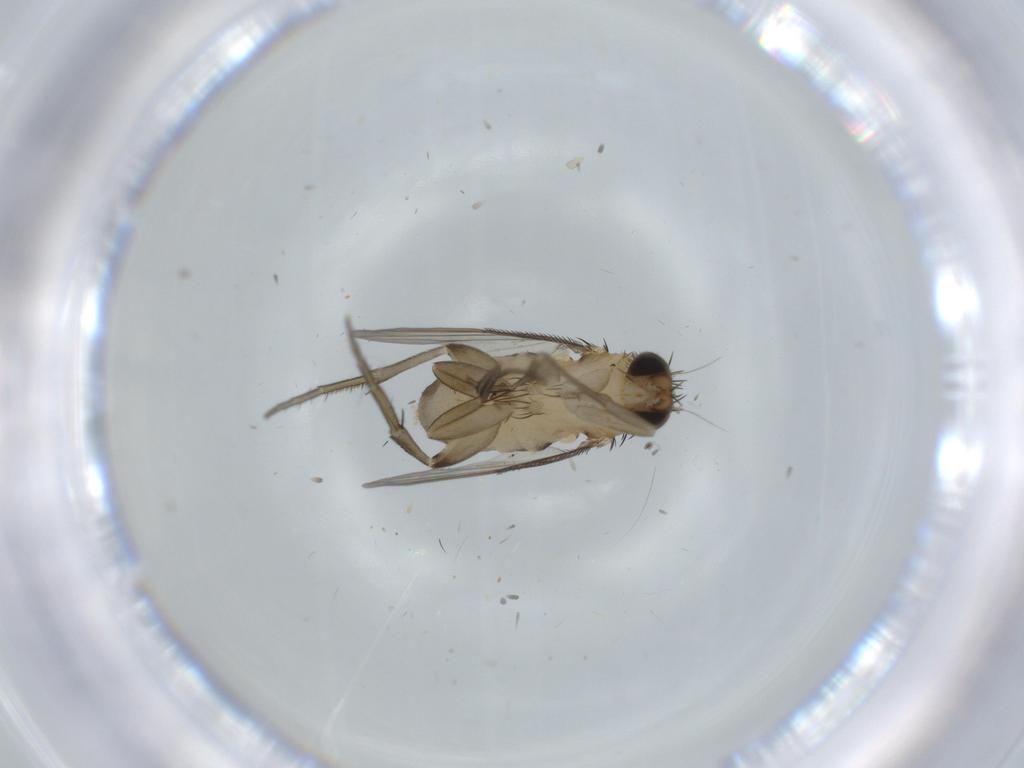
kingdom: Animalia
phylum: Arthropoda
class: Insecta
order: Diptera
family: Phoridae
